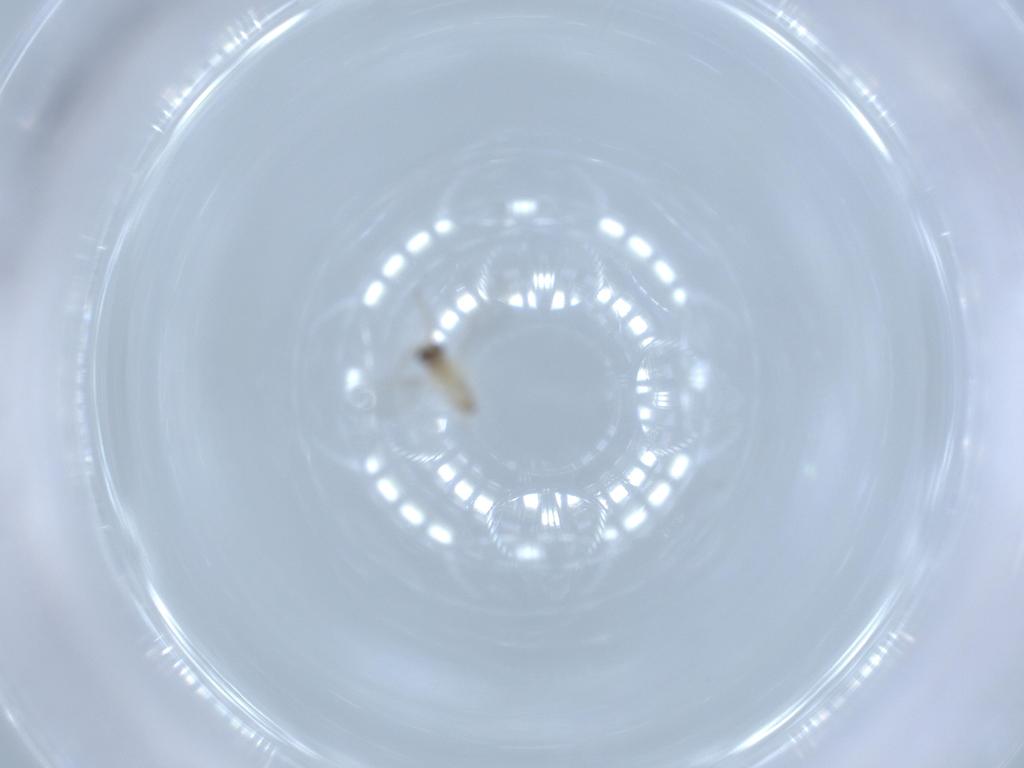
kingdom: Animalia
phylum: Arthropoda
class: Insecta
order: Diptera
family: Cecidomyiidae
